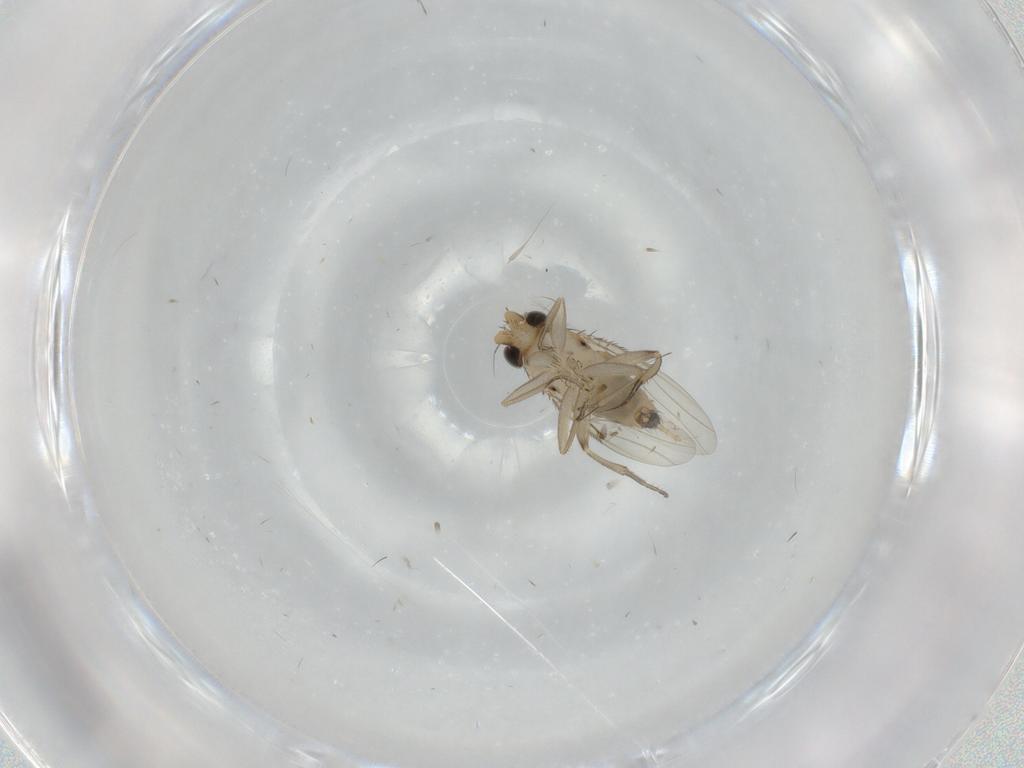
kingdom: Animalia
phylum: Arthropoda
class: Insecta
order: Diptera
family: Phoridae
